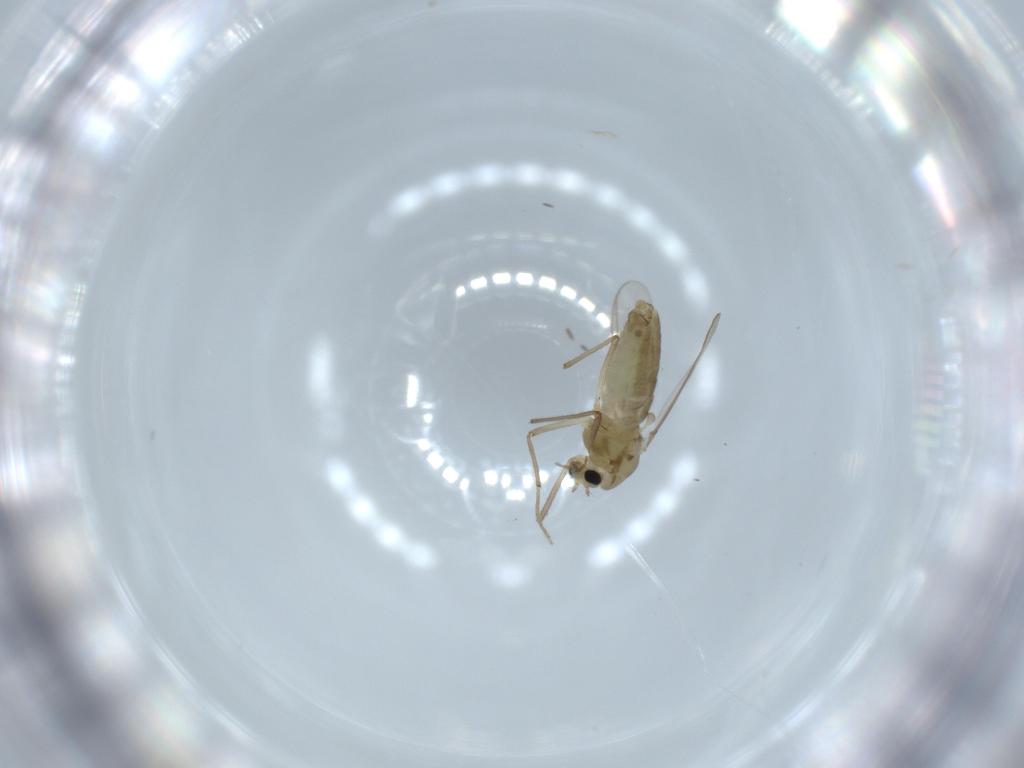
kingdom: Animalia
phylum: Arthropoda
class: Insecta
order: Diptera
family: Chironomidae
